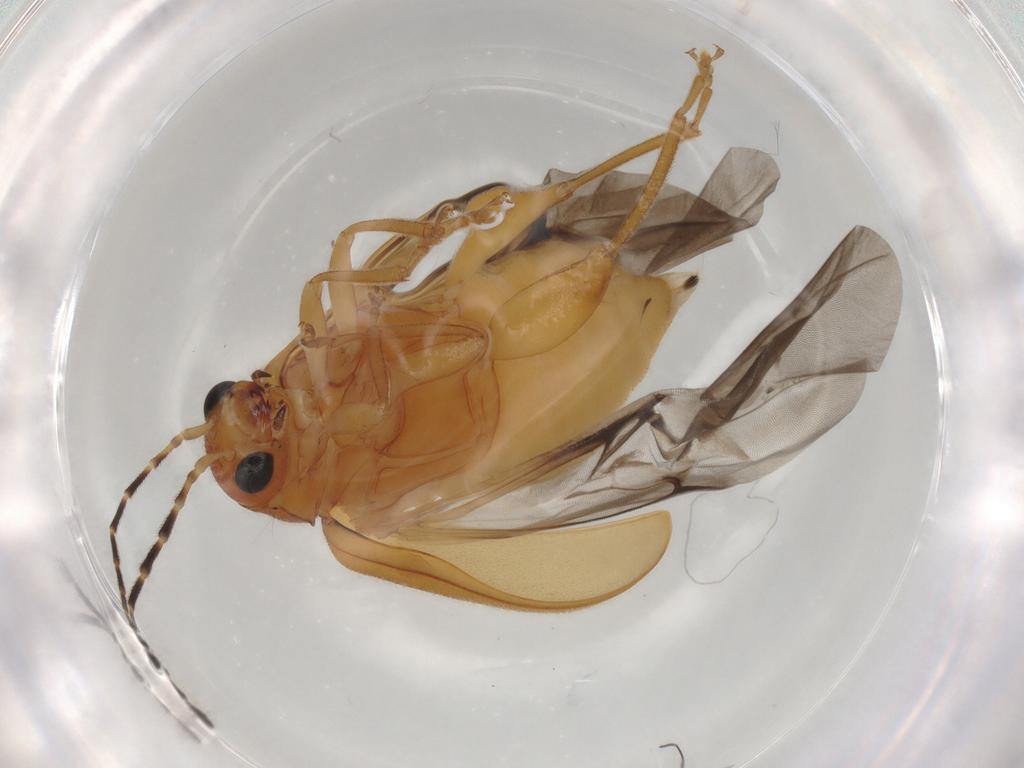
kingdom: Animalia
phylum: Arthropoda
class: Insecta
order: Coleoptera
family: Chrysomelidae
